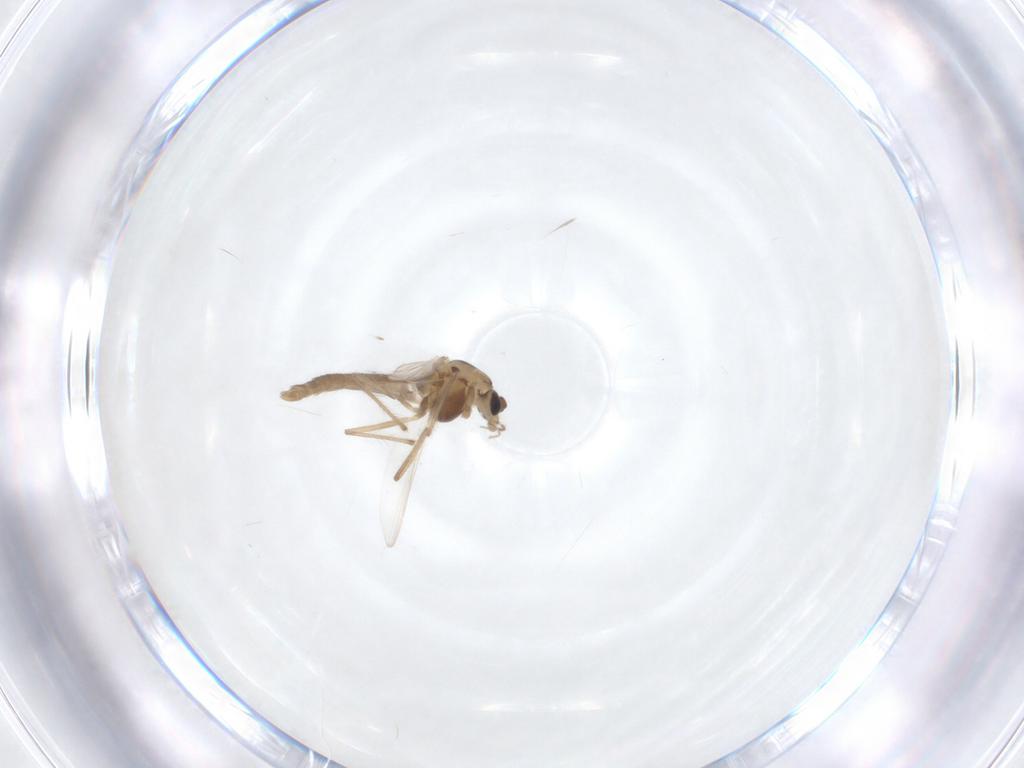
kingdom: Animalia
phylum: Arthropoda
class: Insecta
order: Diptera
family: Chironomidae
